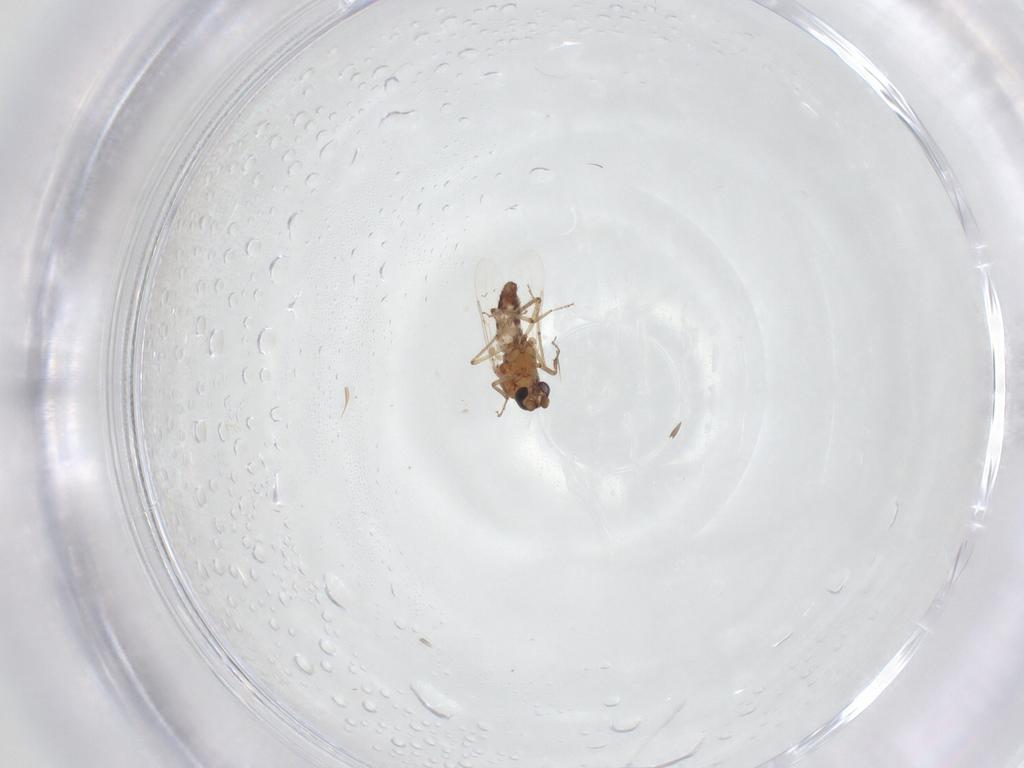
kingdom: Animalia
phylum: Arthropoda
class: Insecta
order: Diptera
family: Ceratopogonidae
